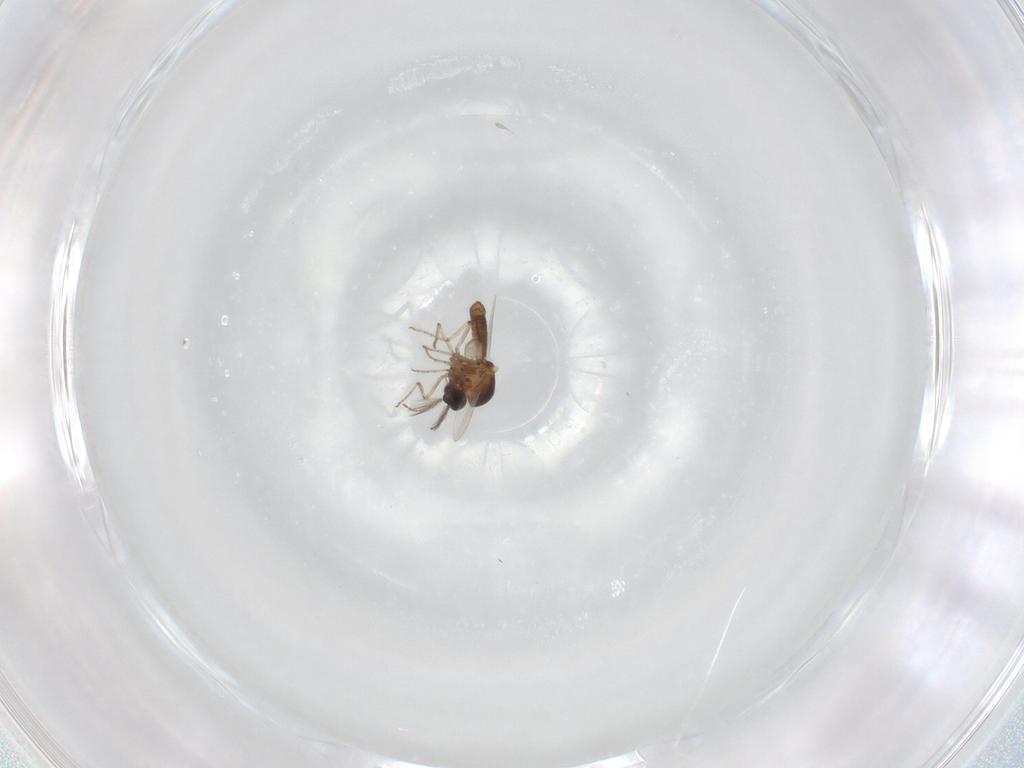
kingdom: Animalia
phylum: Arthropoda
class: Insecta
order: Diptera
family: Ceratopogonidae
